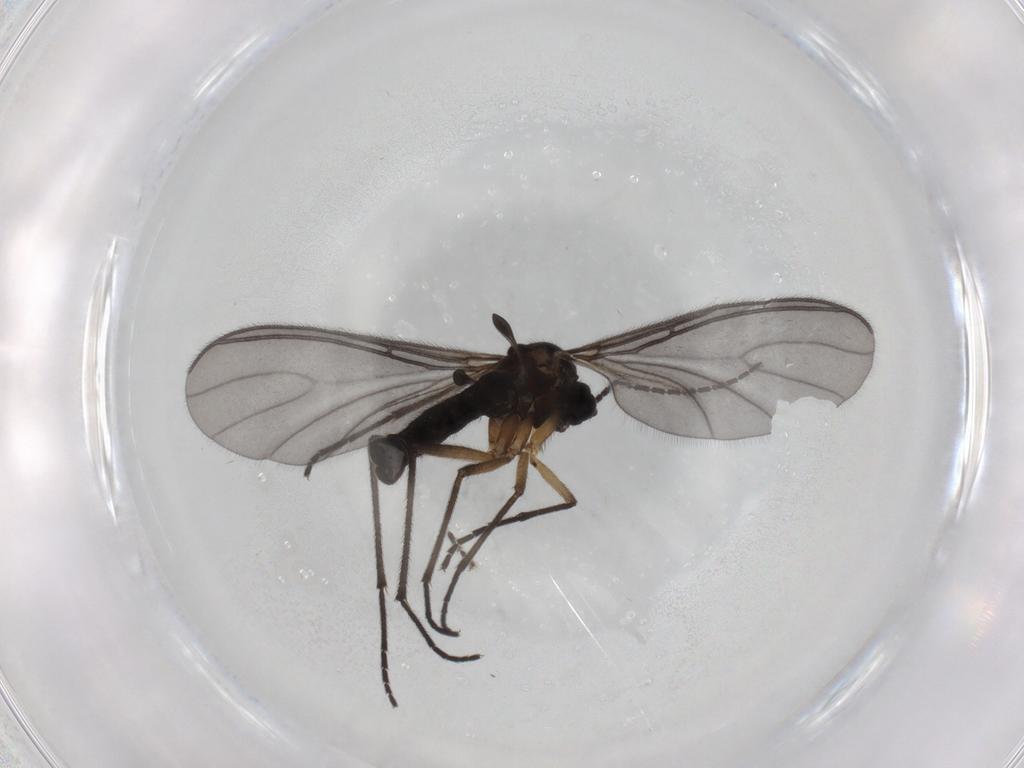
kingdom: Animalia
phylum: Arthropoda
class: Insecta
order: Diptera
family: Sciaridae
